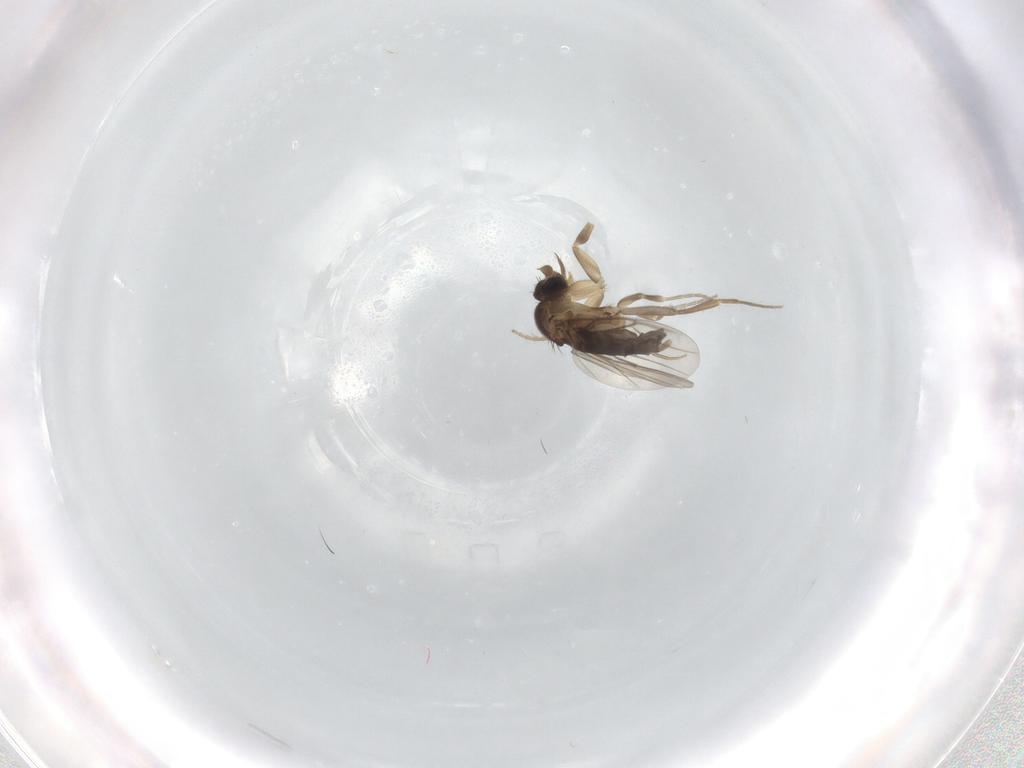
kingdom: Animalia
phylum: Arthropoda
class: Insecta
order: Diptera
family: Phoridae
